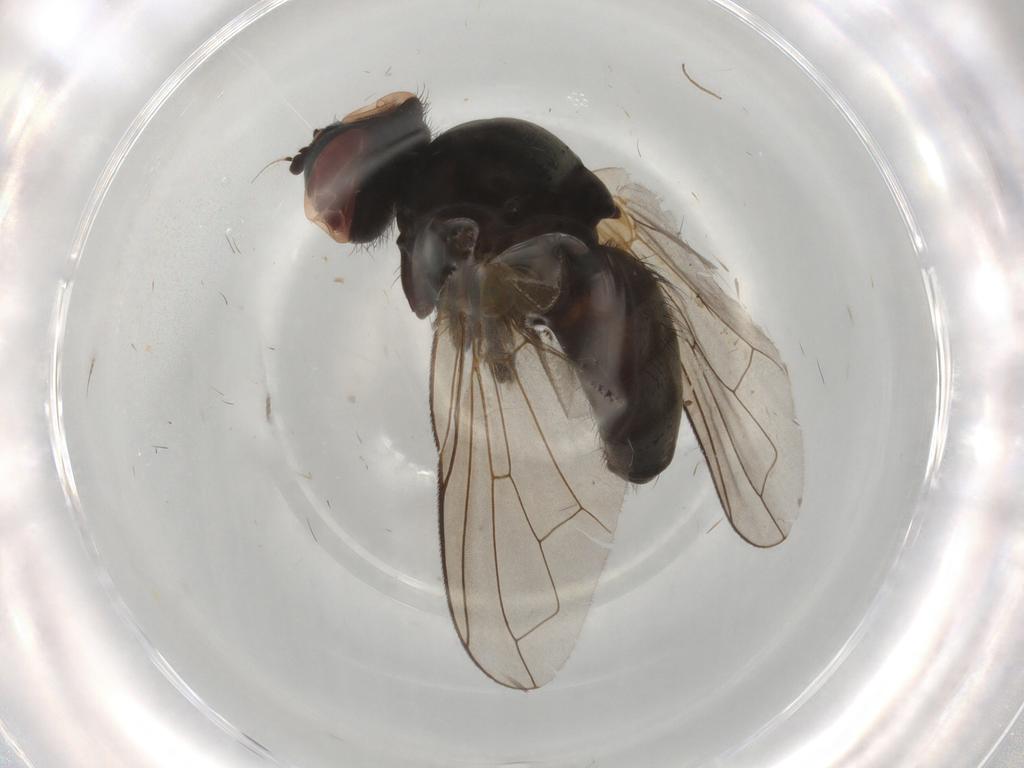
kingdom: Animalia
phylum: Arthropoda
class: Insecta
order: Diptera
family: Tachinidae
